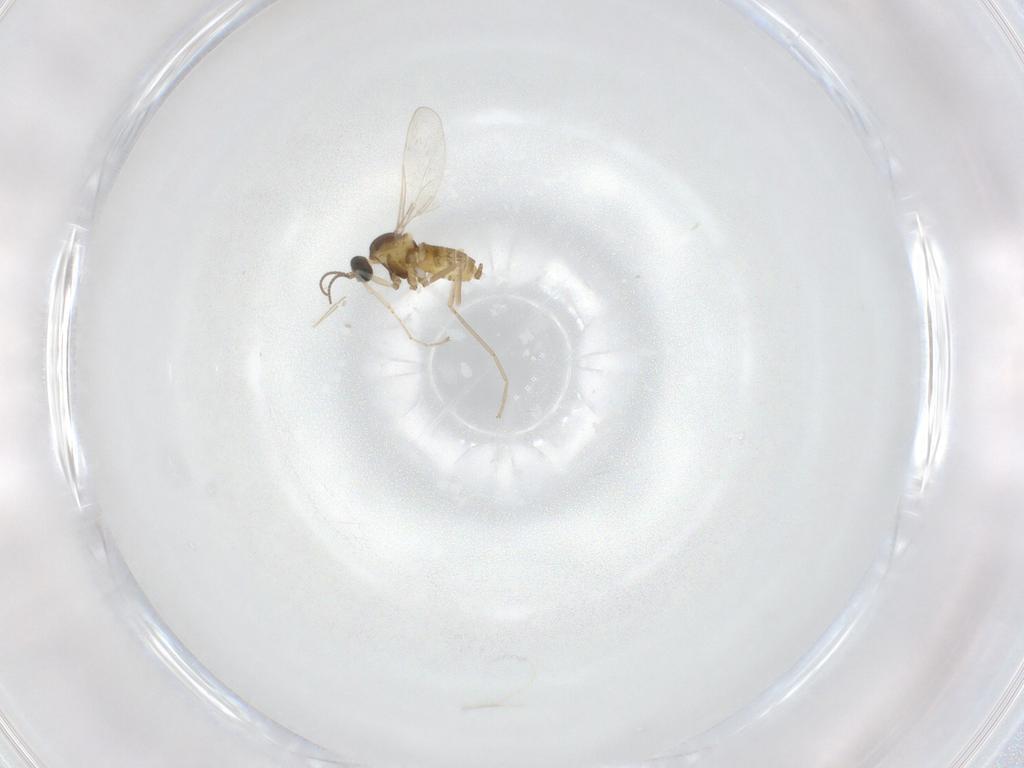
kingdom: Animalia
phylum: Arthropoda
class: Insecta
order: Diptera
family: Cecidomyiidae
